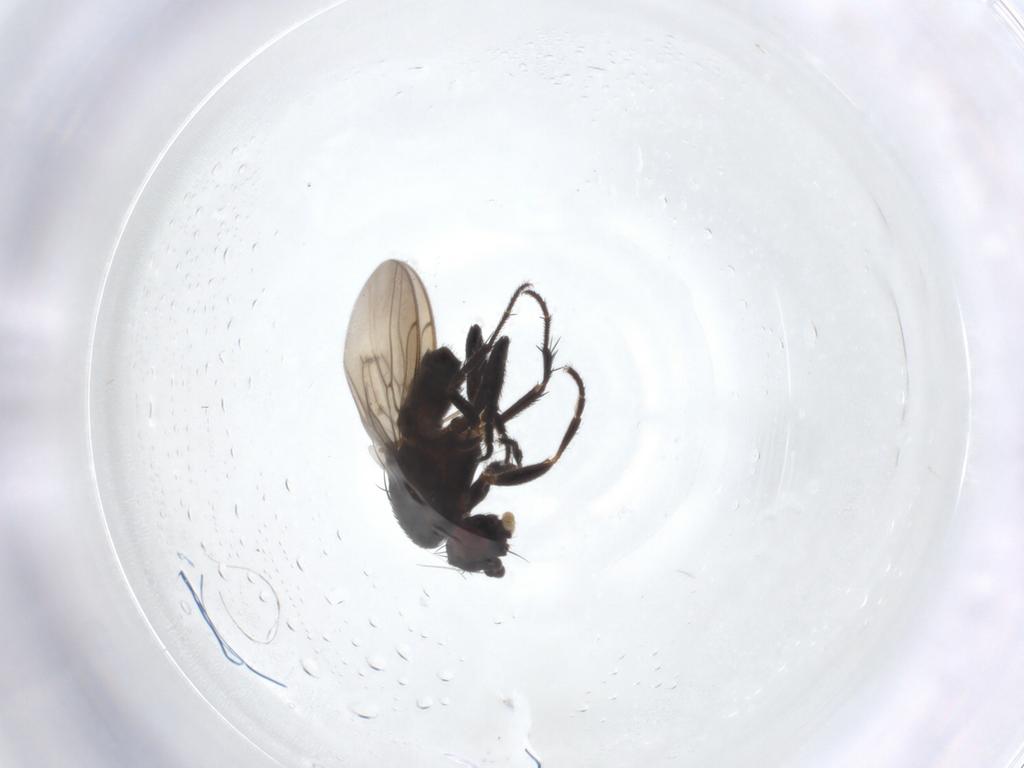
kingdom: Animalia
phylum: Arthropoda
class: Insecta
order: Diptera
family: Sphaeroceridae
